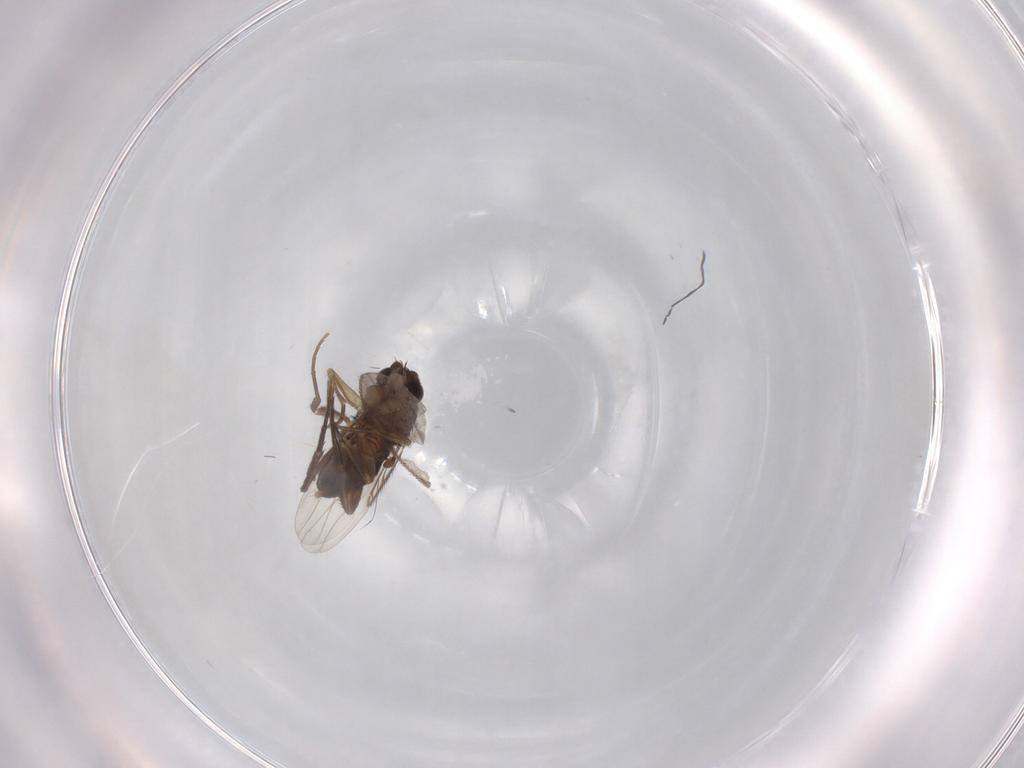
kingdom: Animalia
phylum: Arthropoda
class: Insecta
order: Diptera
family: Phoridae
